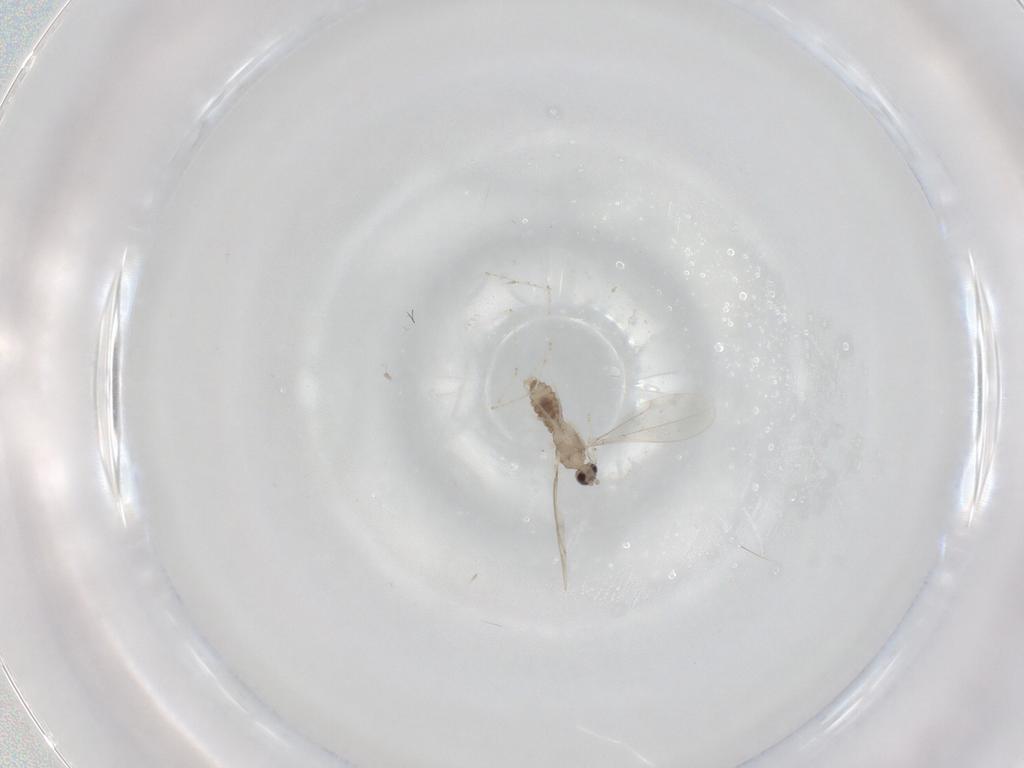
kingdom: Animalia
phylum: Arthropoda
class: Insecta
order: Diptera
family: Cecidomyiidae
